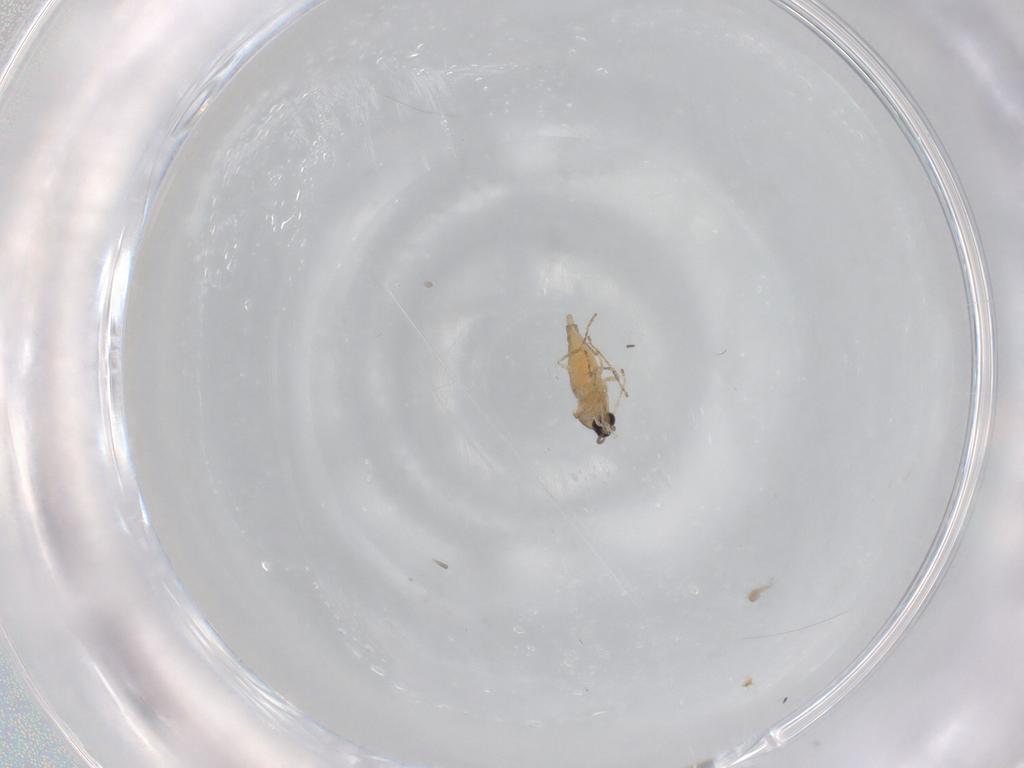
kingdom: Animalia
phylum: Arthropoda
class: Insecta
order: Diptera
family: Cecidomyiidae
